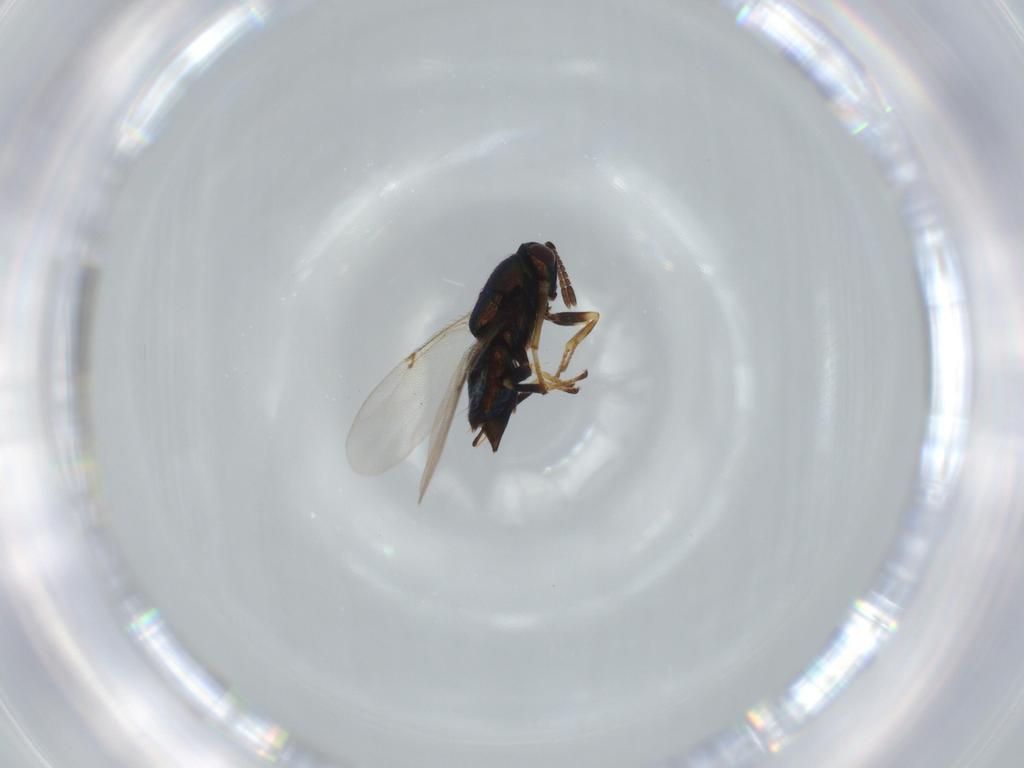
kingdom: Animalia
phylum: Arthropoda
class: Insecta
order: Hymenoptera
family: Encyrtidae
